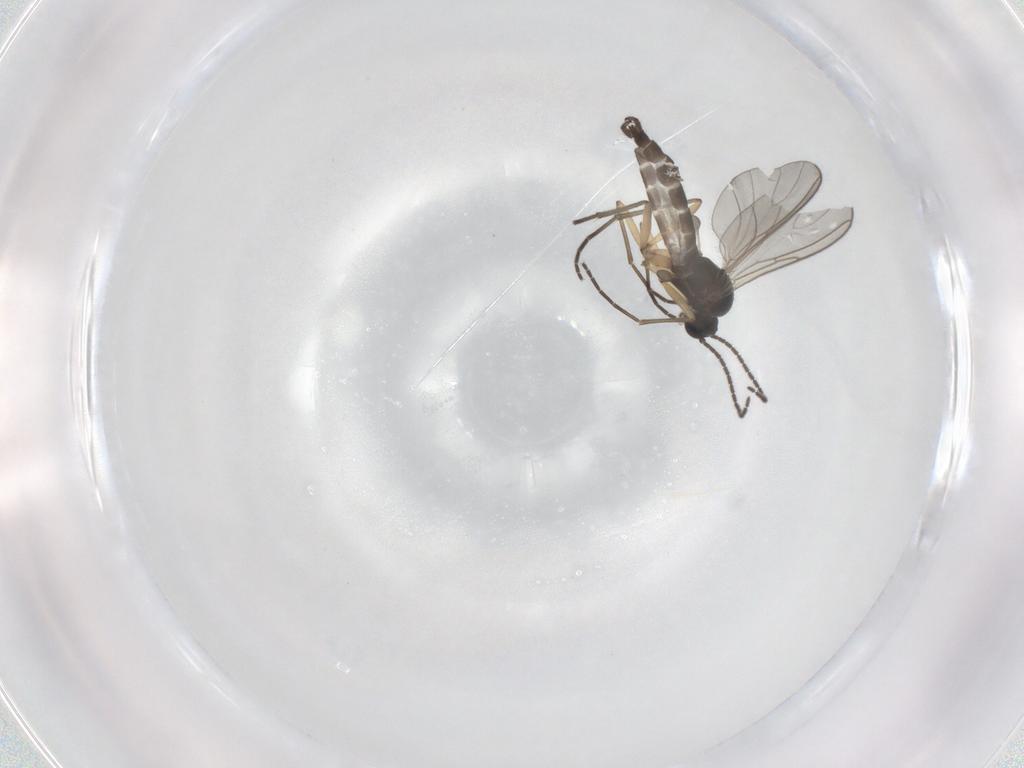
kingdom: Animalia
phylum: Arthropoda
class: Insecta
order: Diptera
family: Sciaridae
